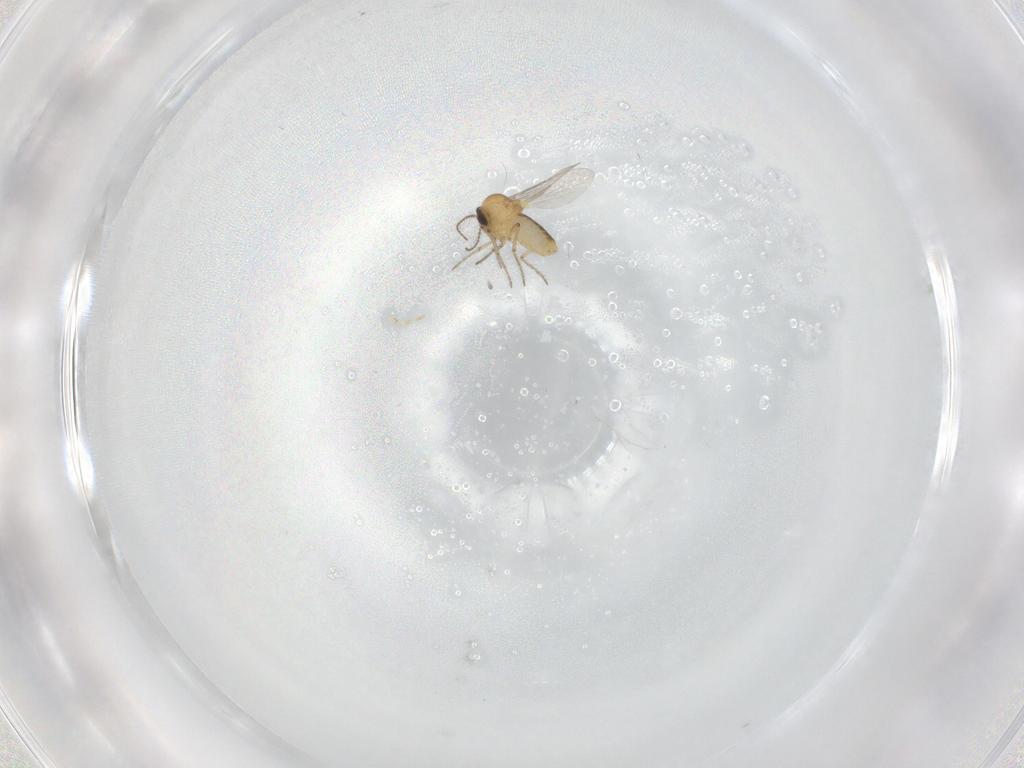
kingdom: Animalia
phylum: Arthropoda
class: Insecta
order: Diptera
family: Ceratopogonidae
